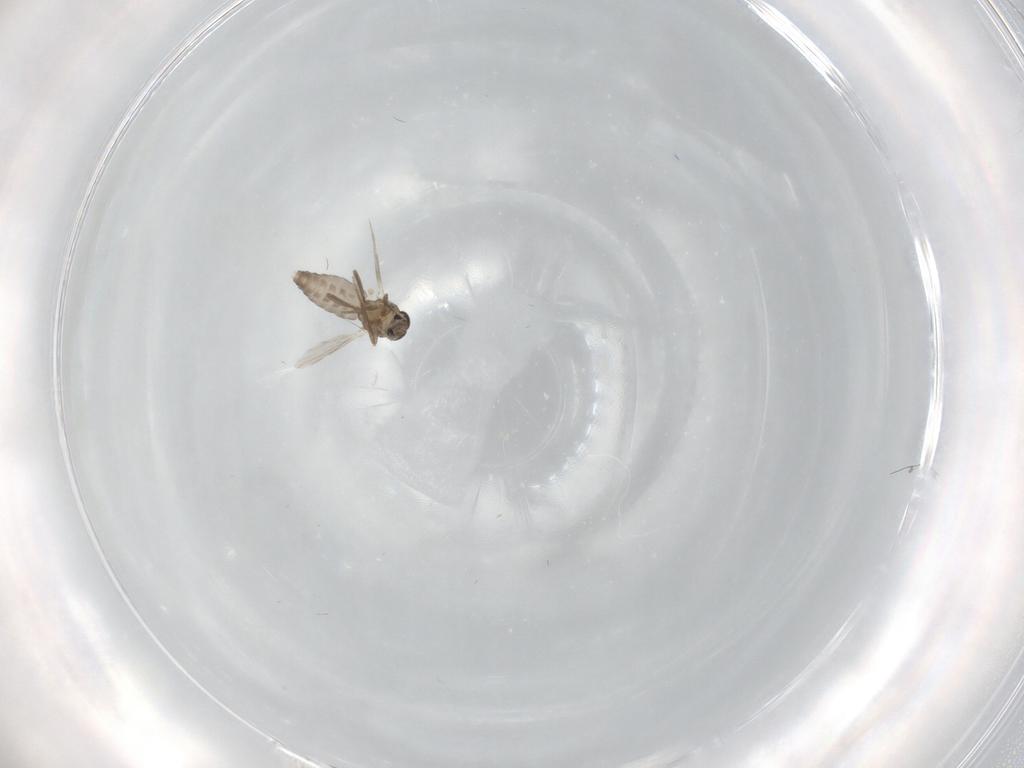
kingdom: Animalia
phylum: Arthropoda
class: Insecta
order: Diptera
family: Ceratopogonidae
